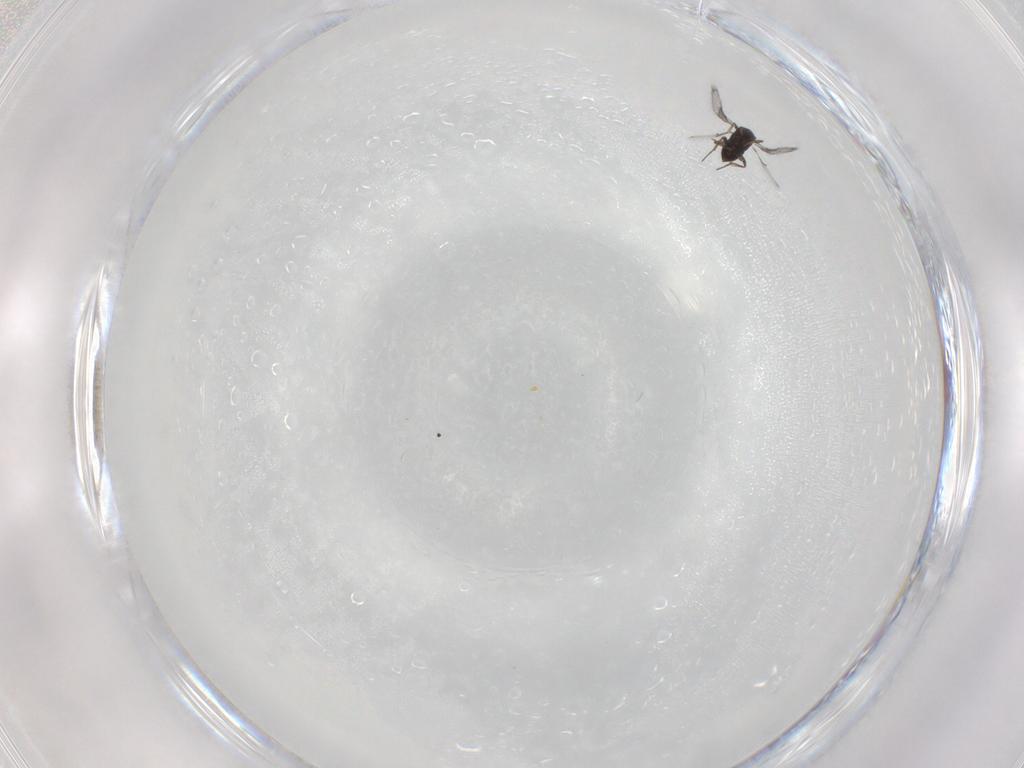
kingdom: Animalia
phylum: Arthropoda
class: Insecta
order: Hymenoptera
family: Trichogrammatidae
